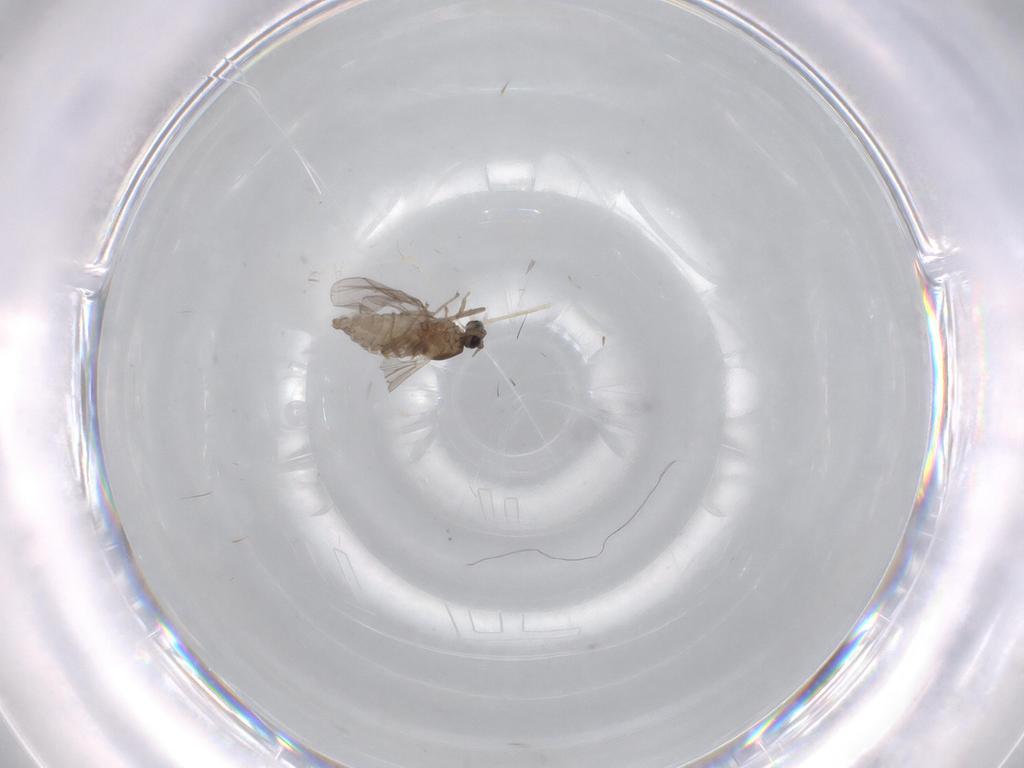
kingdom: Animalia
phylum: Arthropoda
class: Insecta
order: Diptera
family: Cecidomyiidae
